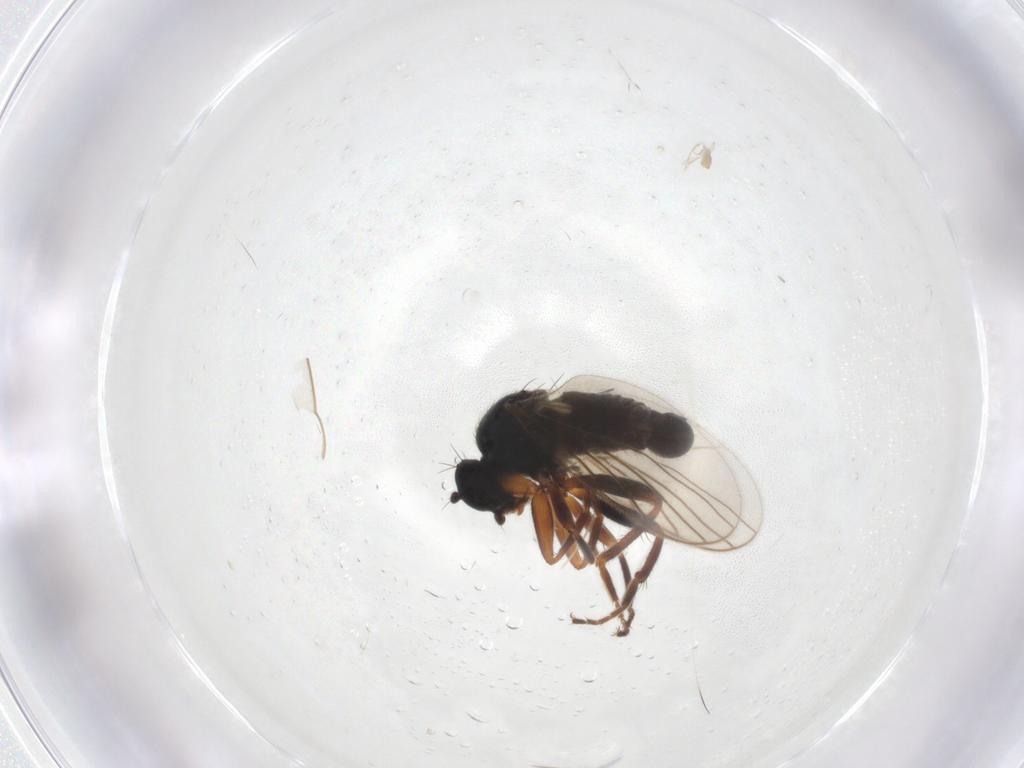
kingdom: Animalia
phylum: Arthropoda
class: Insecta
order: Diptera
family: Hybotidae
